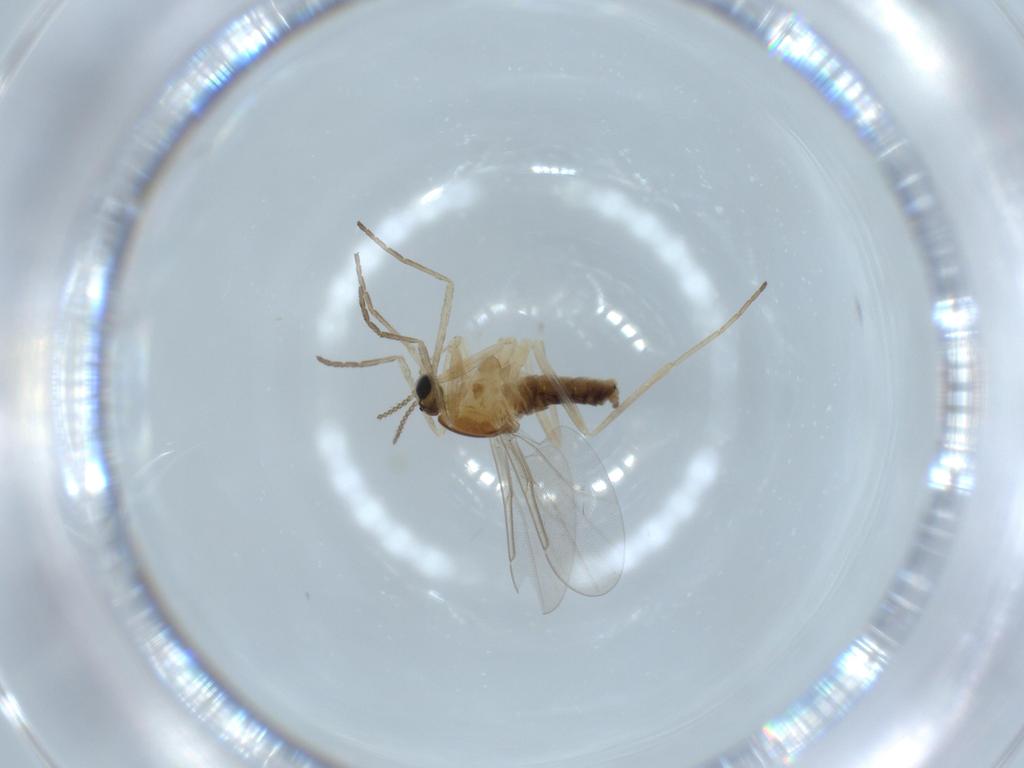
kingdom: Animalia
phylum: Arthropoda
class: Insecta
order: Diptera
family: Cecidomyiidae
